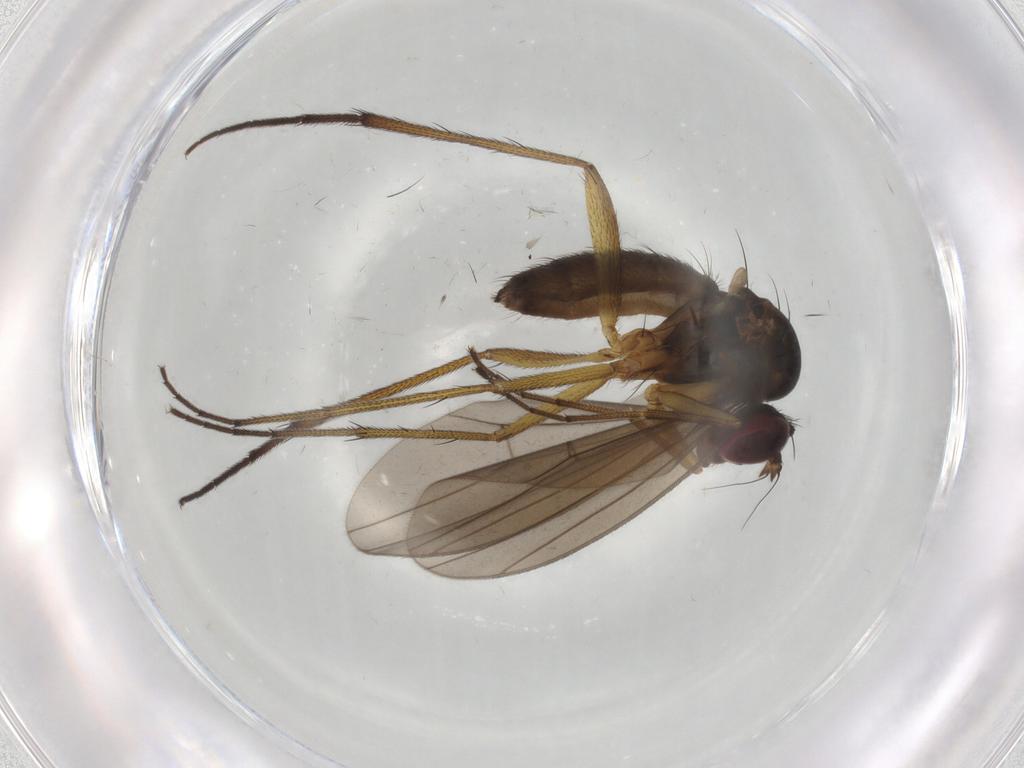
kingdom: Animalia
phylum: Arthropoda
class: Insecta
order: Diptera
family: Dolichopodidae
